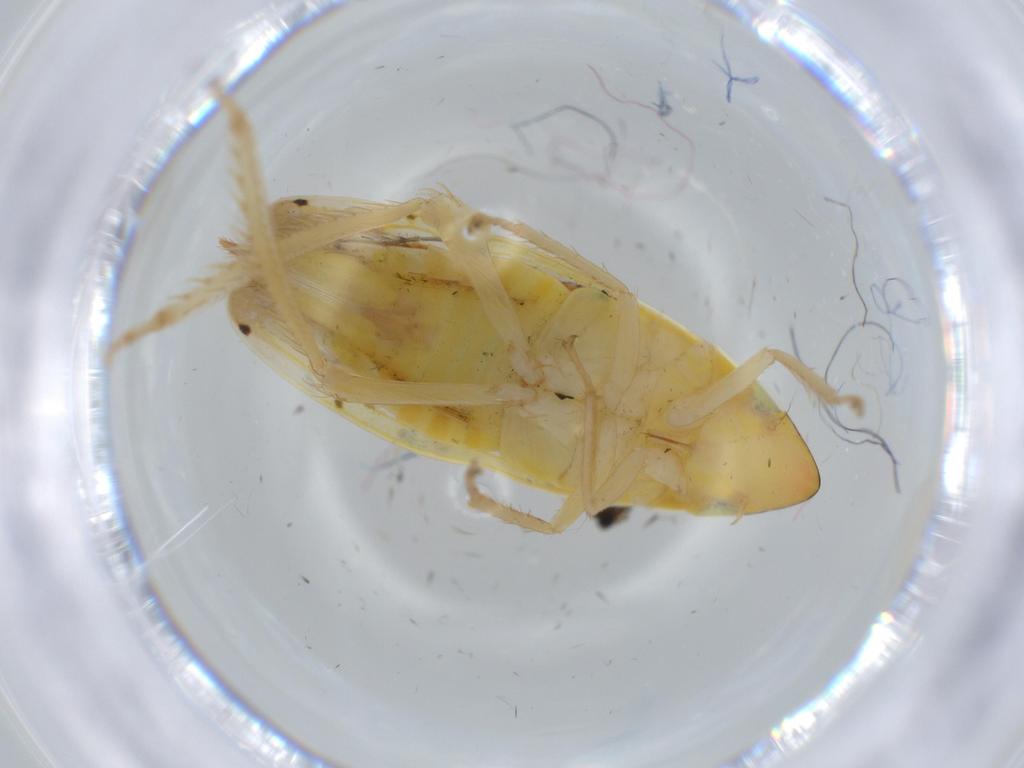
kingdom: Animalia
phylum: Arthropoda
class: Insecta
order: Hemiptera
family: Cicadellidae
